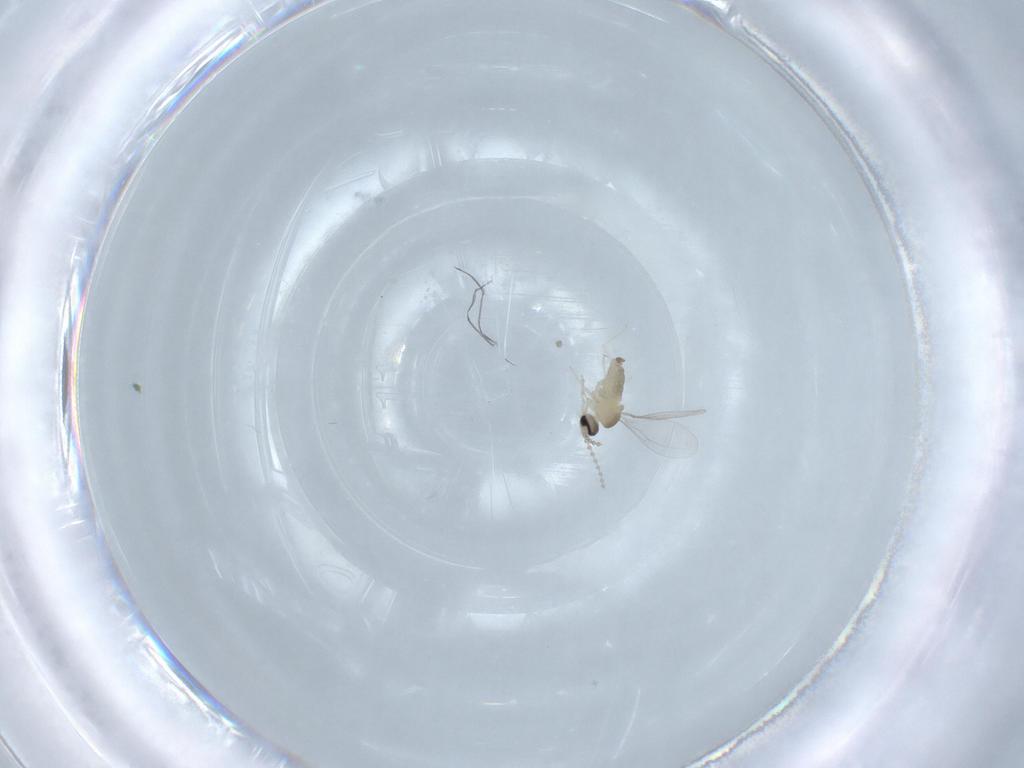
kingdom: Animalia
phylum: Arthropoda
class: Insecta
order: Diptera
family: Cecidomyiidae
